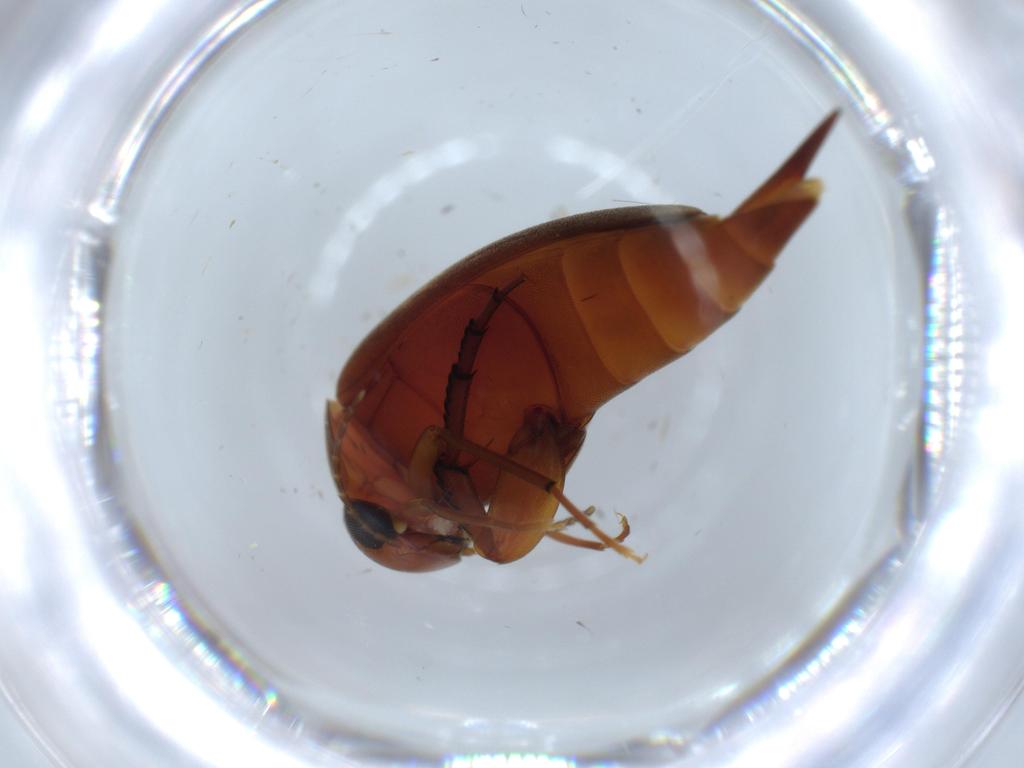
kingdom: Animalia
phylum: Arthropoda
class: Insecta
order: Coleoptera
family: Mordellidae
